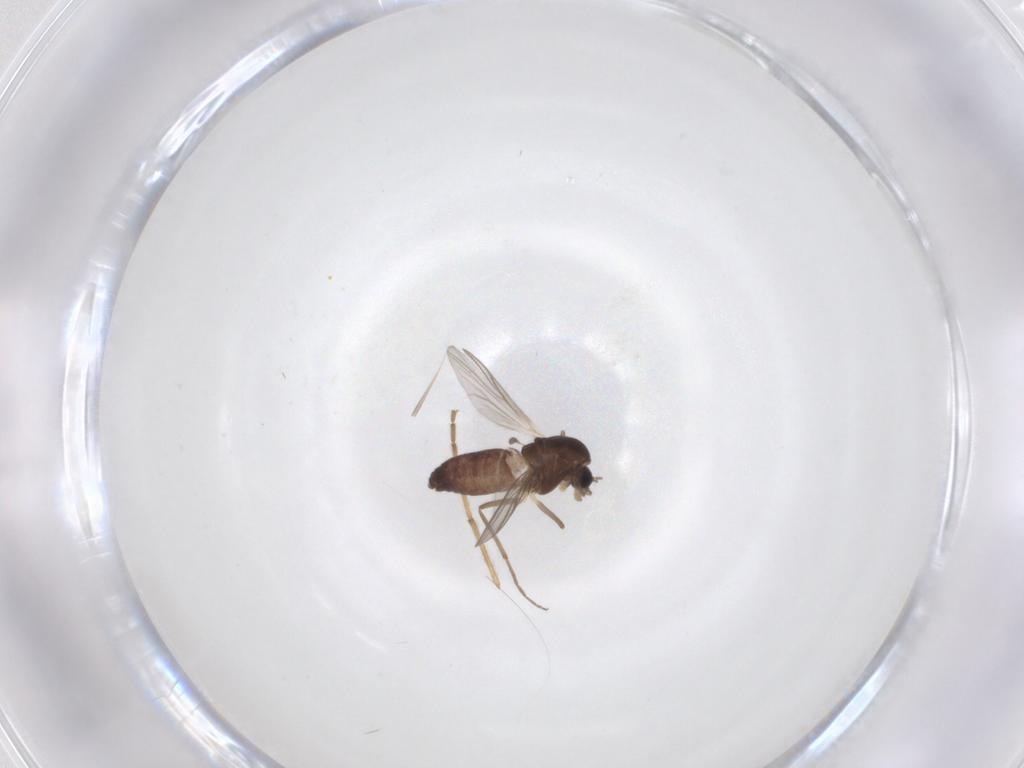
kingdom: Animalia
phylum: Arthropoda
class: Insecta
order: Diptera
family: Chironomidae
